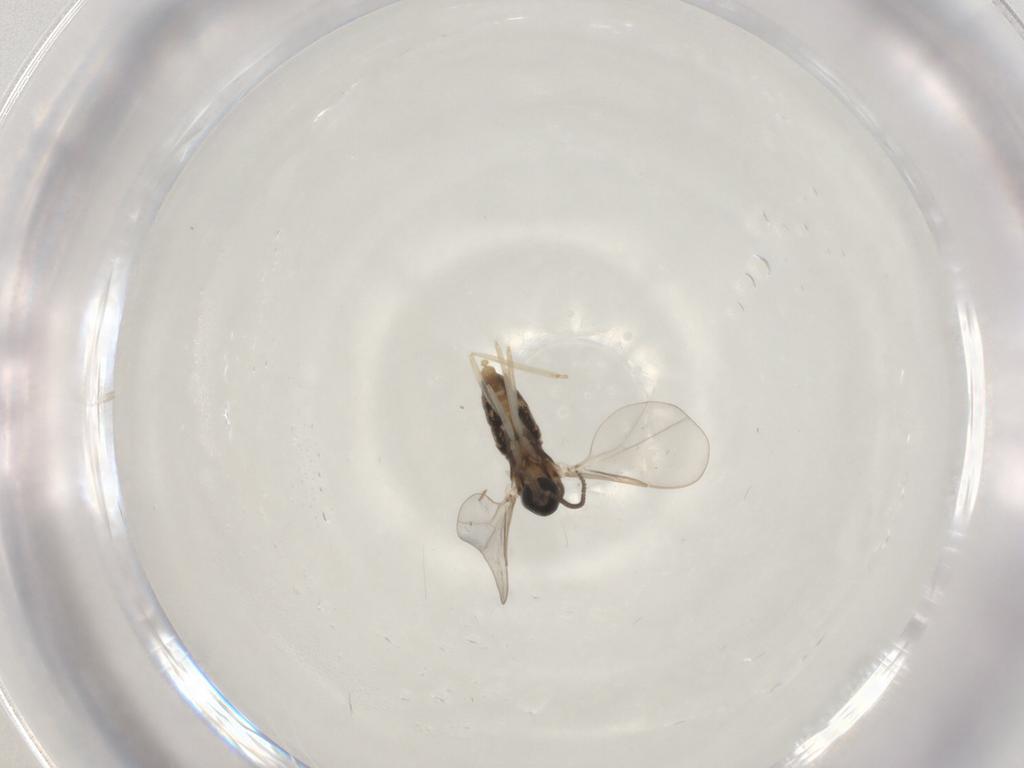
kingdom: Animalia
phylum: Arthropoda
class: Insecta
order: Diptera
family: Cecidomyiidae
